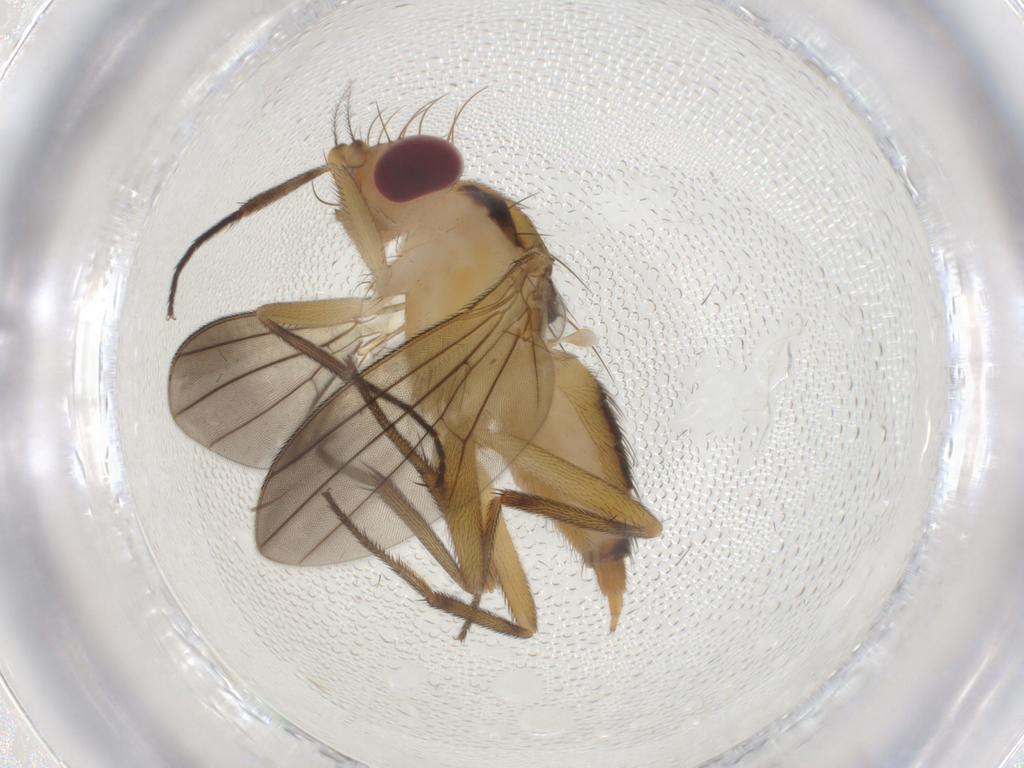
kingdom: Animalia
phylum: Arthropoda
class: Insecta
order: Diptera
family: Clusiidae
